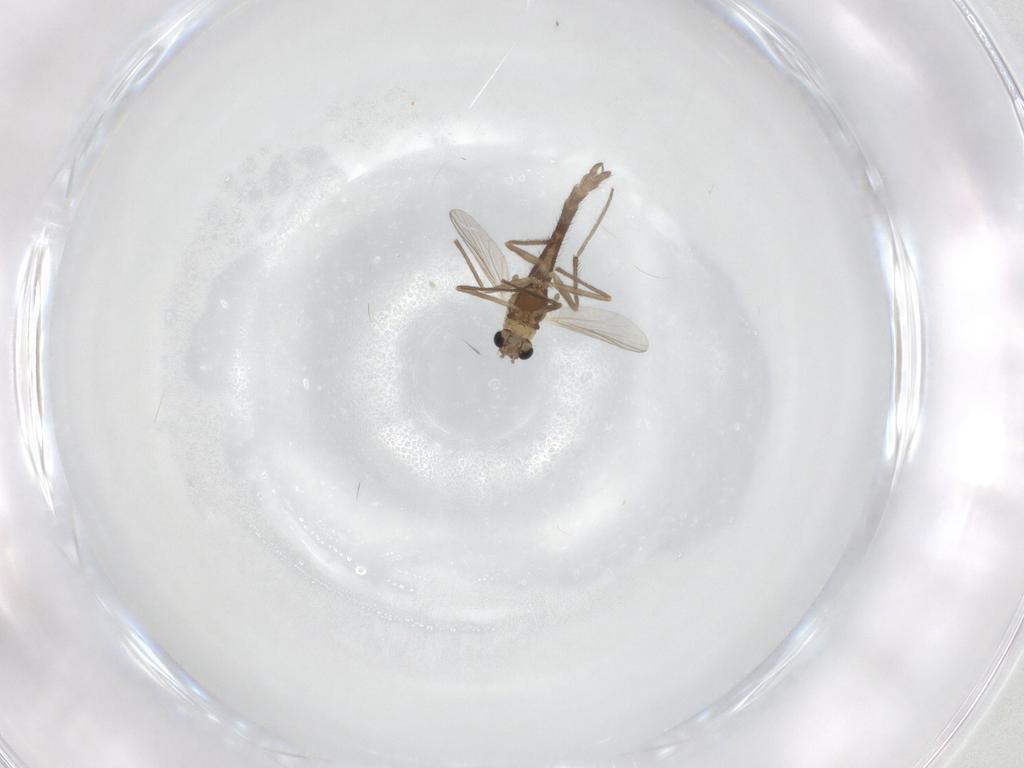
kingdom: Animalia
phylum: Arthropoda
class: Insecta
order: Diptera
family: Chironomidae
